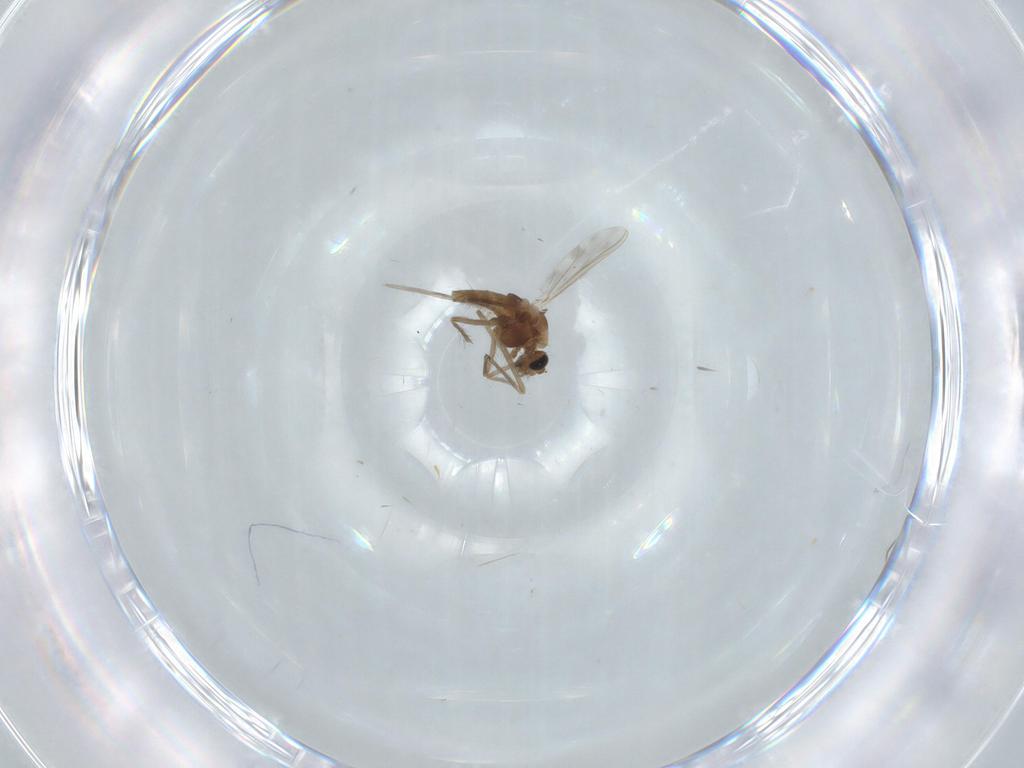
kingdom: Animalia
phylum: Arthropoda
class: Insecta
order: Diptera
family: Chironomidae
